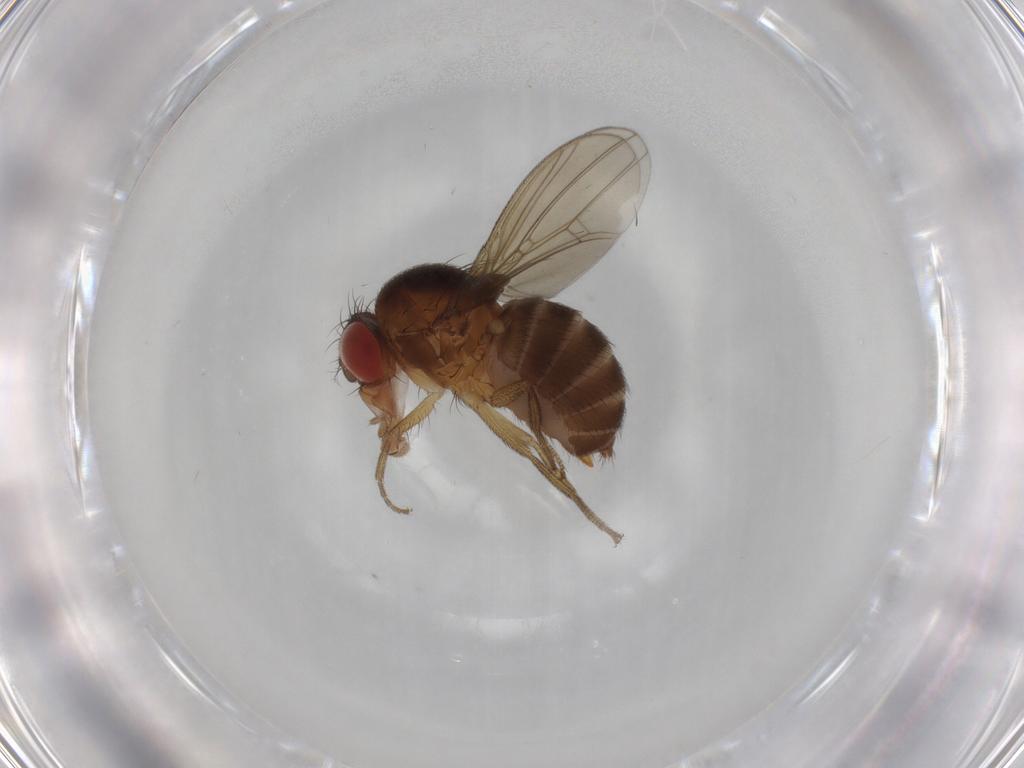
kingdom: Animalia
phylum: Arthropoda
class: Insecta
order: Diptera
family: Drosophilidae
